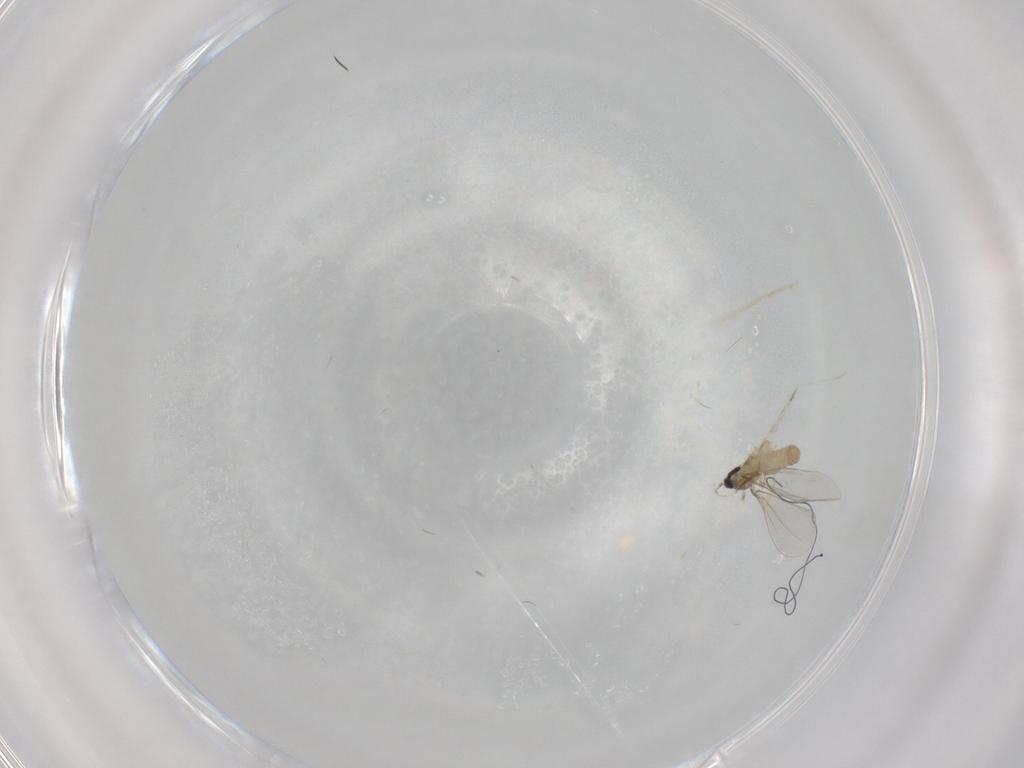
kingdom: Animalia
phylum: Arthropoda
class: Insecta
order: Diptera
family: Cecidomyiidae
